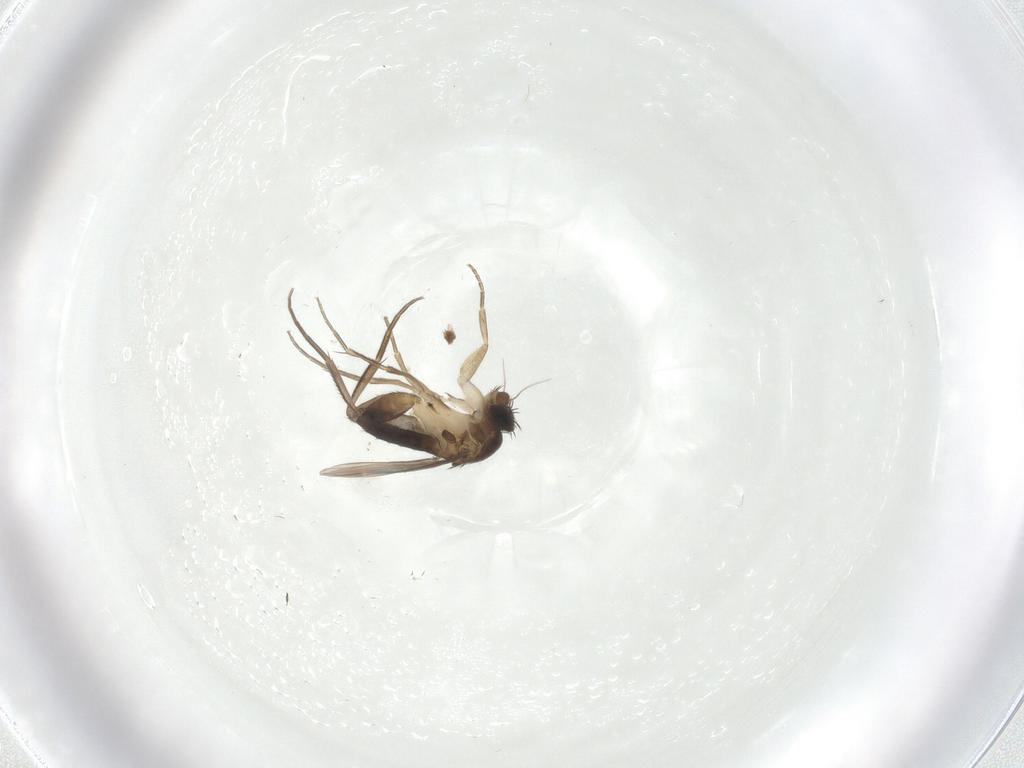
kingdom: Animalia
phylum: Arthropoda
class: Insecta
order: Diptera
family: Phoridae
